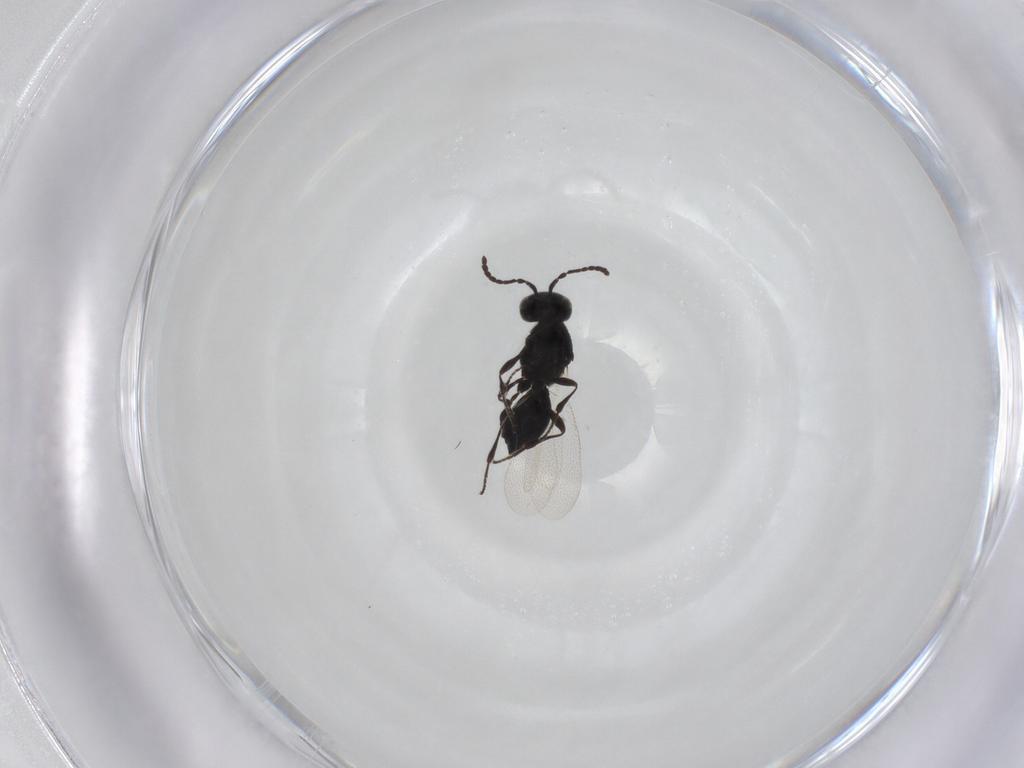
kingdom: Animalia
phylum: Arthropoda
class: Insecta
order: Hymenoptera
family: Platygastridae
